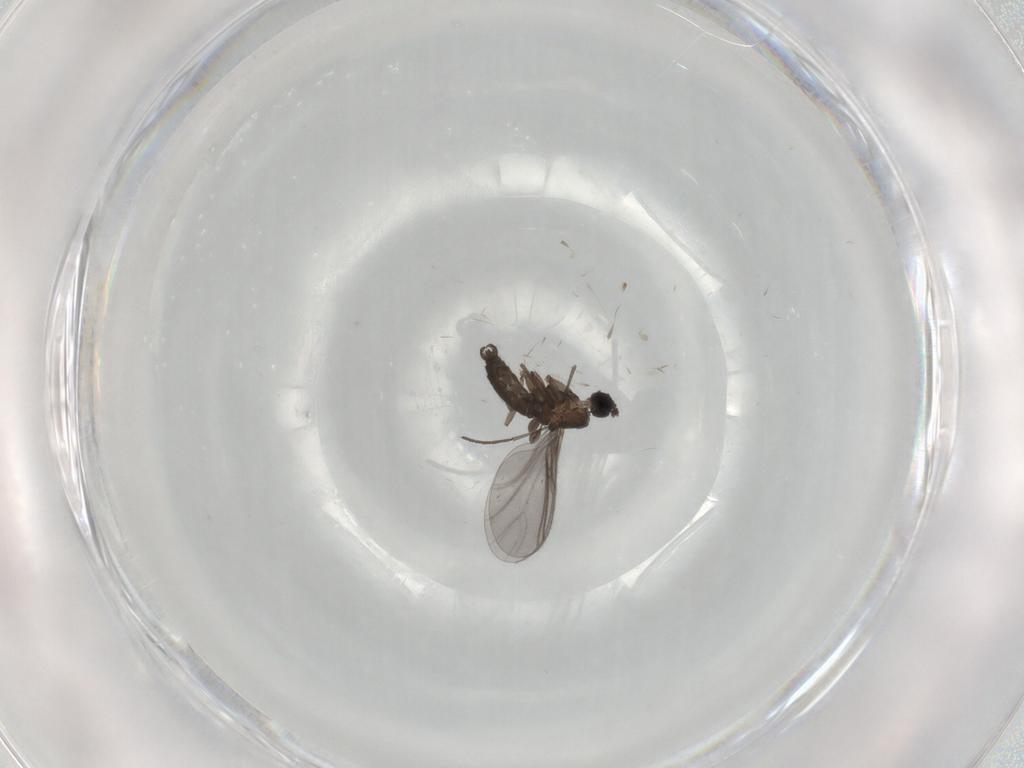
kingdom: Animalia
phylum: Arthropoda
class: Insecta
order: Diptera
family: Sciaridae
